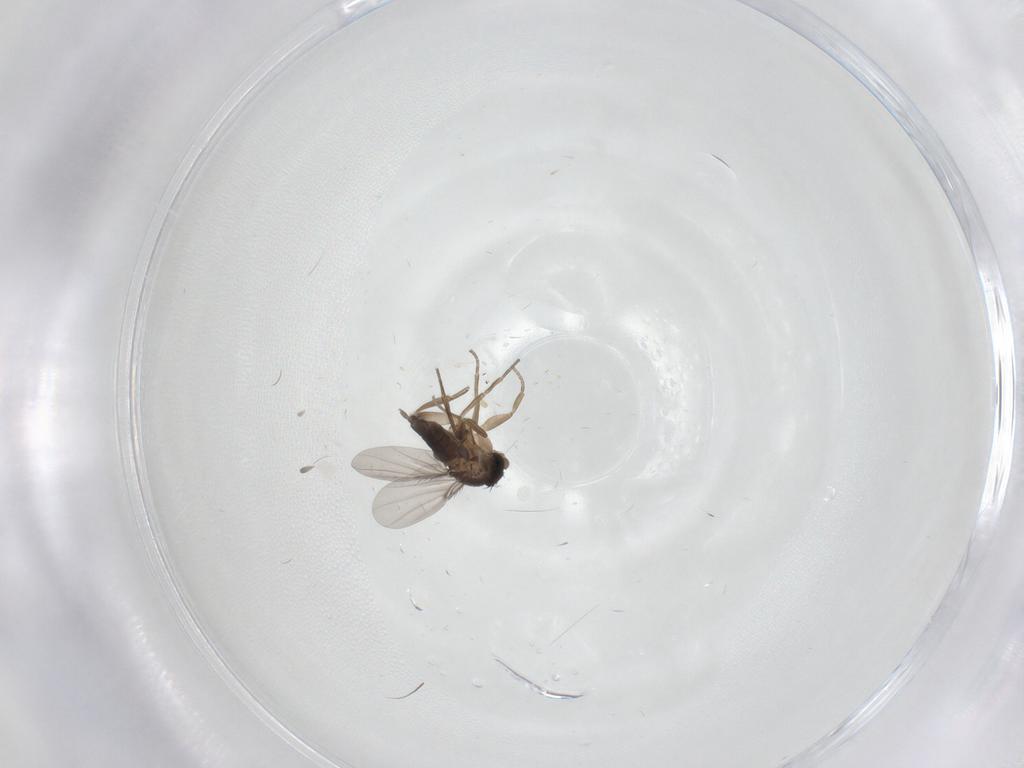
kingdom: Animalia
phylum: Arthropoda
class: Insecta
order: Diptera
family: Phoridae
